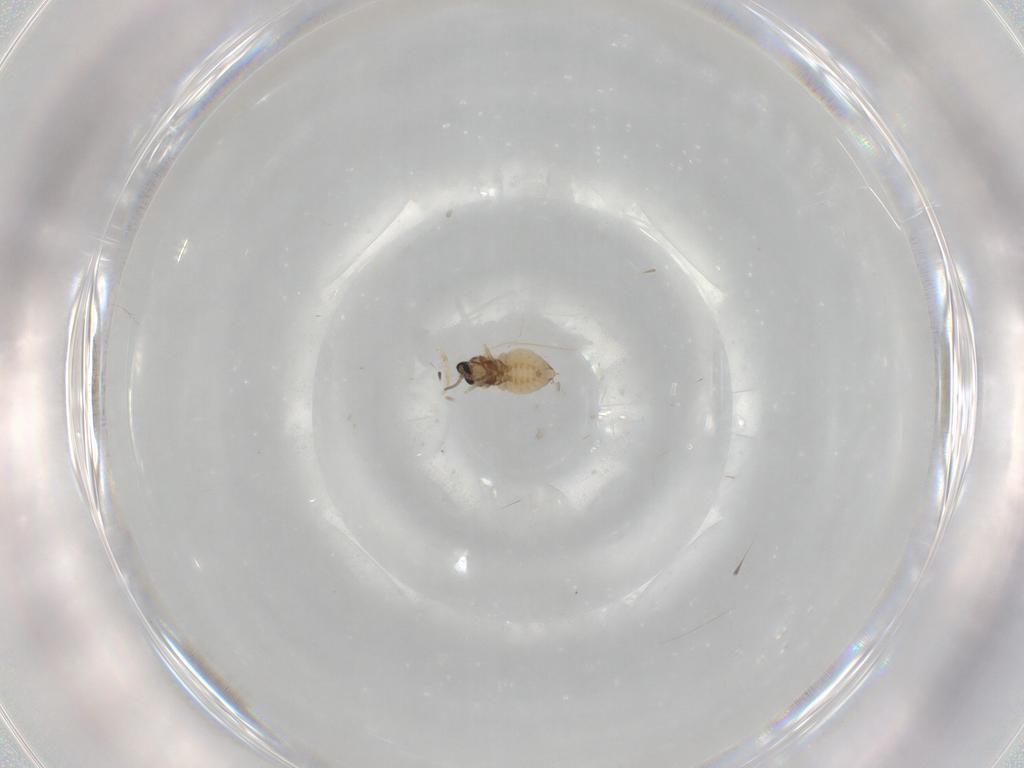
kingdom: Animalia
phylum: Arthropoda
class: Insecta
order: Diptera
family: Cecidomyiidae
